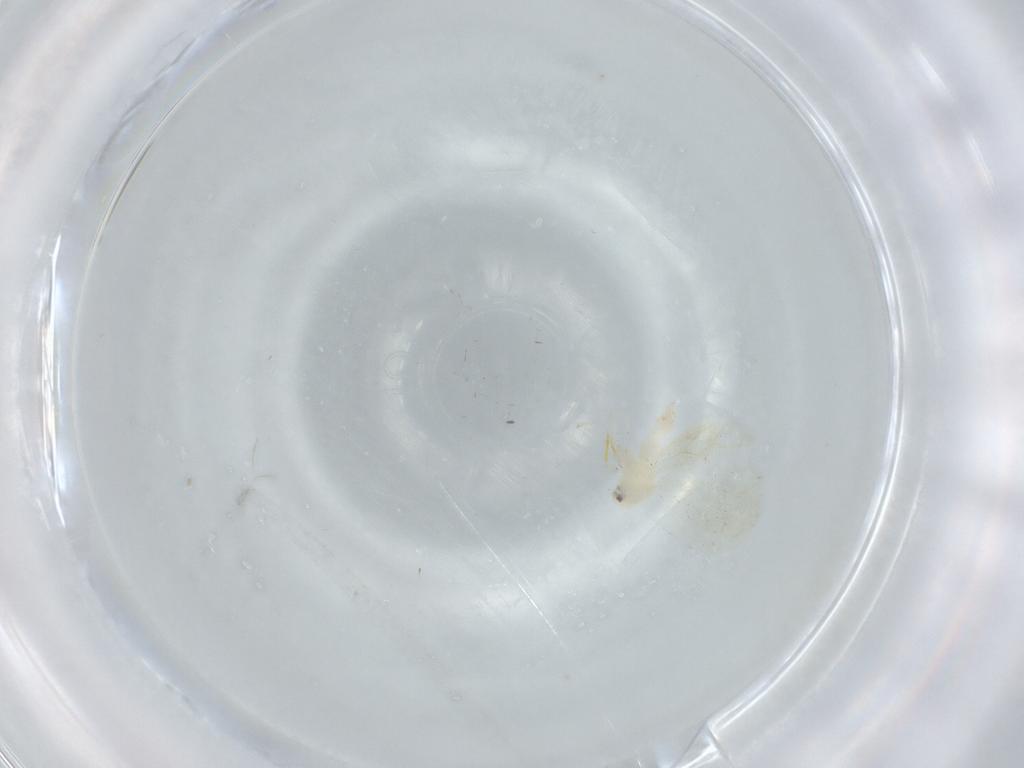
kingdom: Animalia
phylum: Arthropoda
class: Insecta
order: Hemiptera
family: Aleyrodidae
